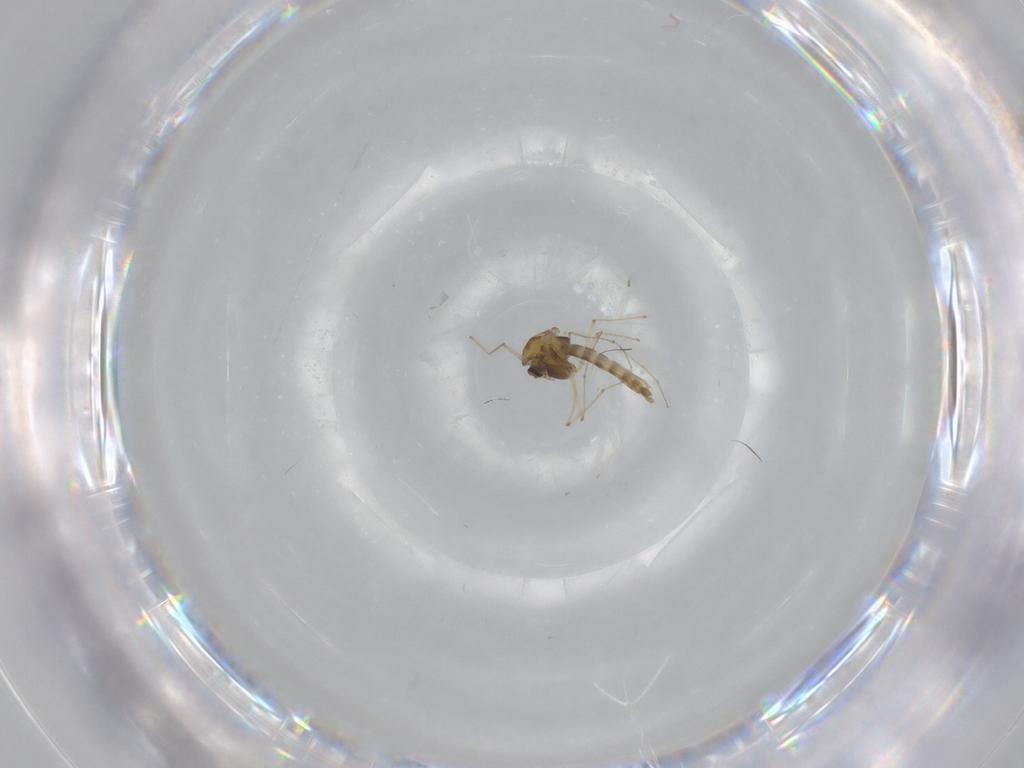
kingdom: Animalia
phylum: Arthropoda
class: Insecta
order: Diptera
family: Chironomidae
